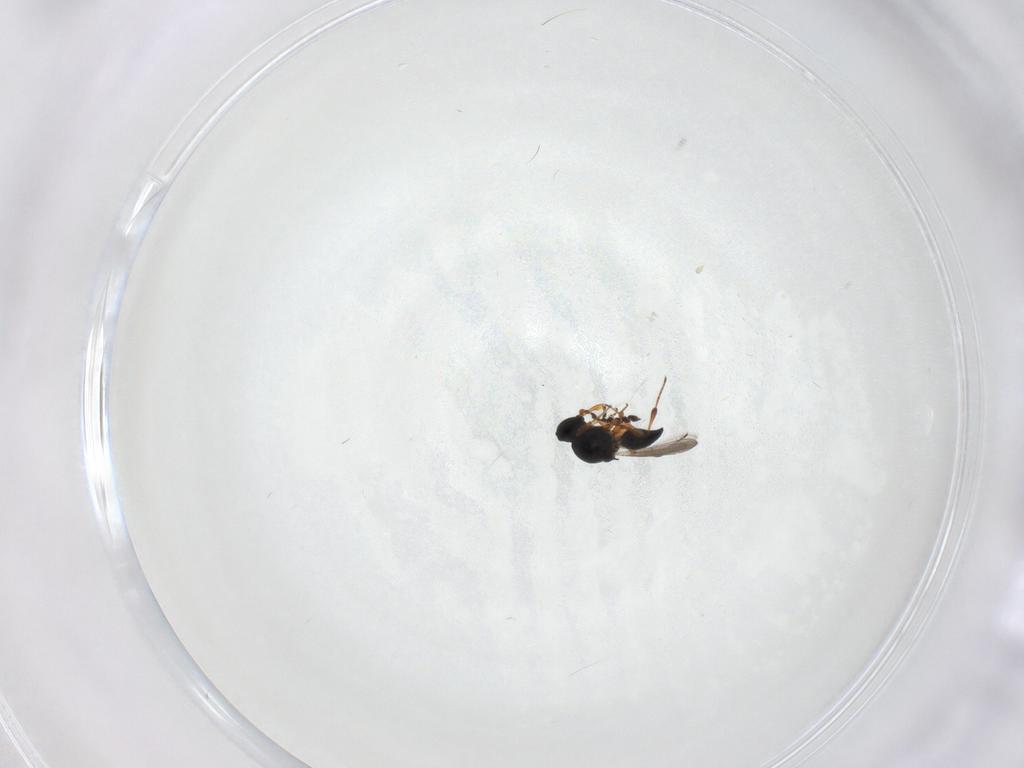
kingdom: Animalia
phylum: Arthropoda
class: Insecta
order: Hymenoptera
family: Platygastridae
